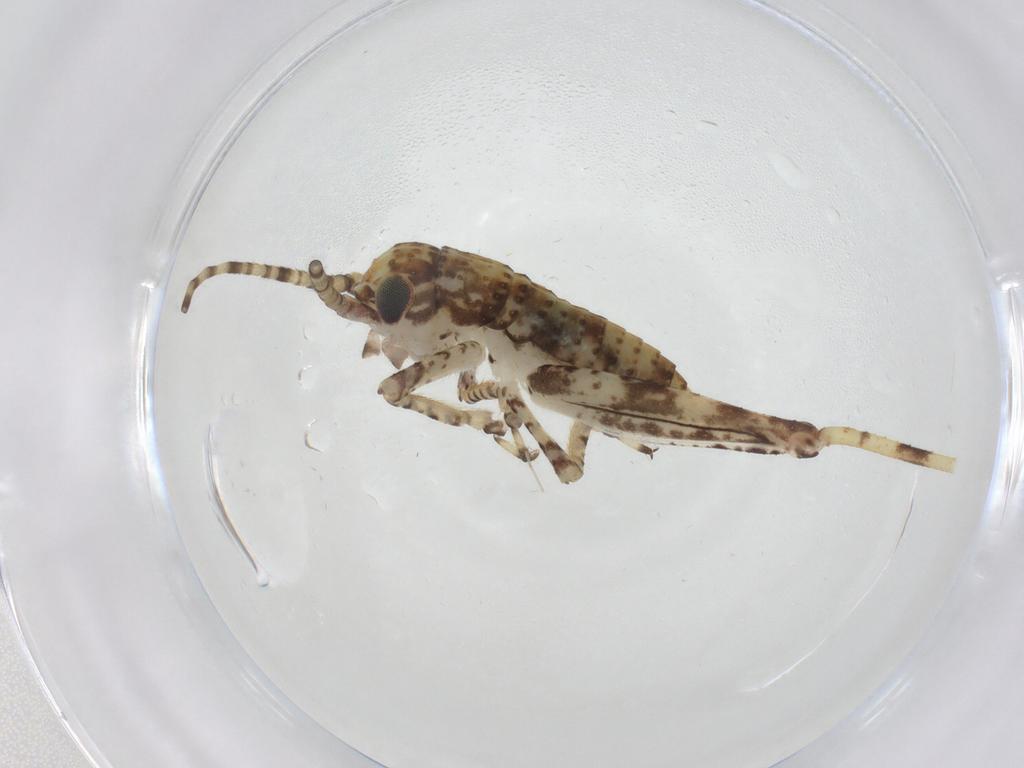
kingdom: Animalia
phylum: Arthropoda
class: Insecta
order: Orthoptera
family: Gryllidae
